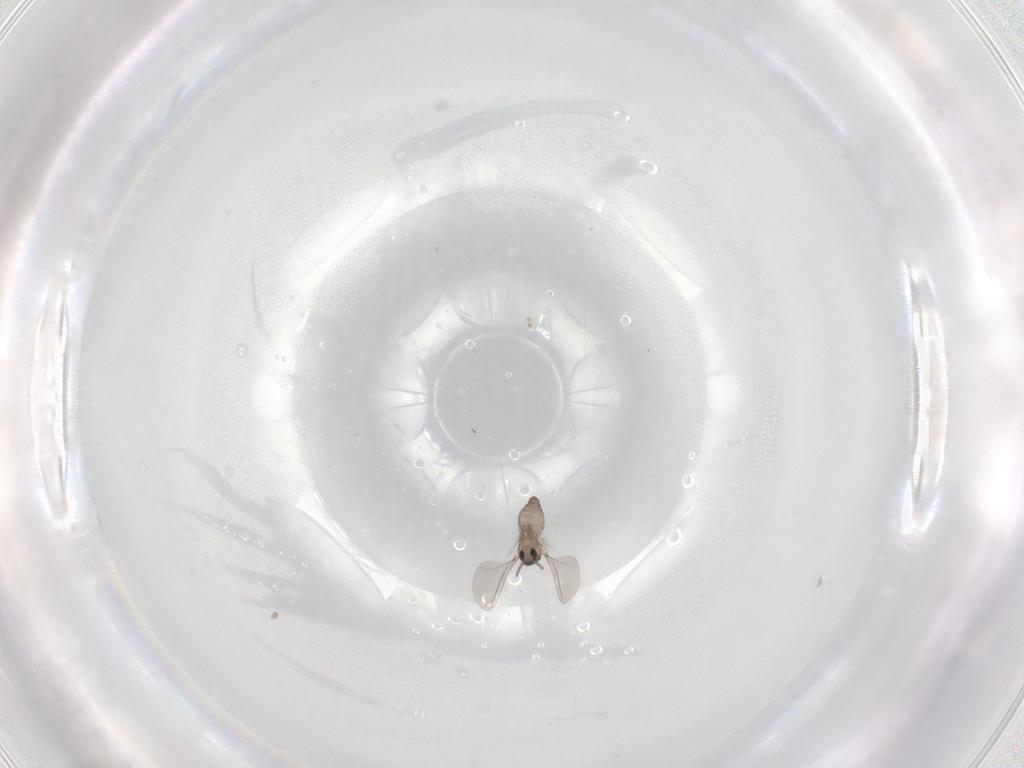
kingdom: Animalia
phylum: Arthropoda
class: Insecta
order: Diptera
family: Cecidomyiidae
